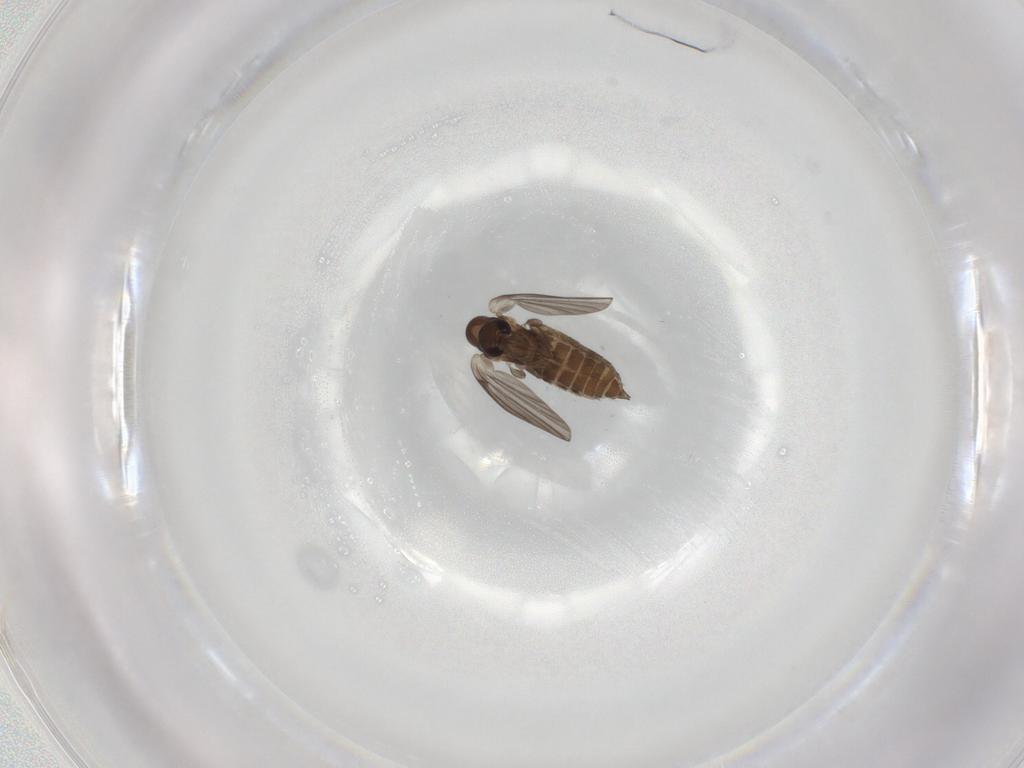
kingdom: Animalia
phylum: Arthropoda
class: Insecta
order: Diptera
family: Psychodidae
